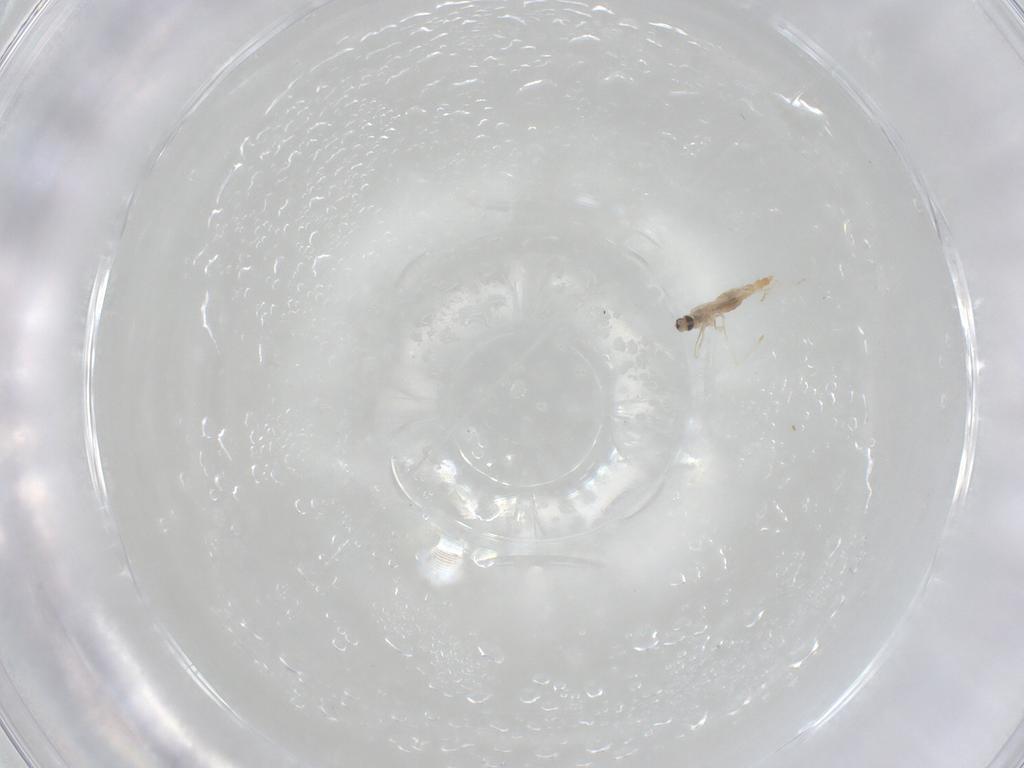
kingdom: Animalia
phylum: Arthropoda
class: Insecta
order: Diptera
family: Cecidomyiidae
